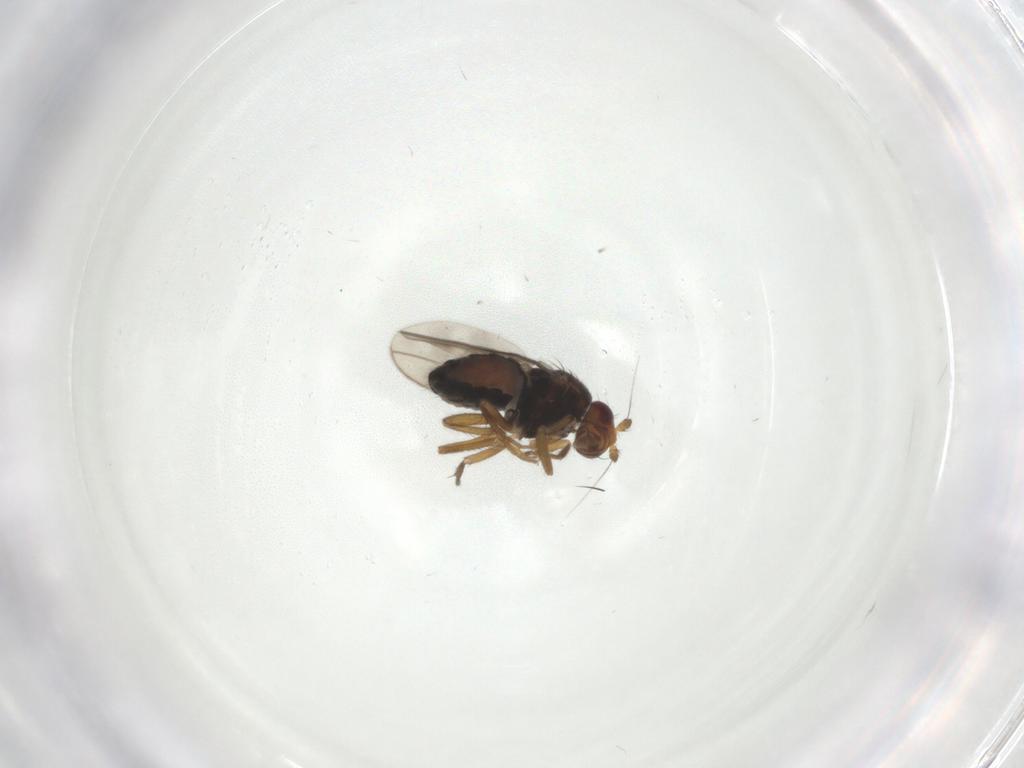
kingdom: Animalia
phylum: Arthropoda
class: Insecta
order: Diptera
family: Sphaeroceridae
